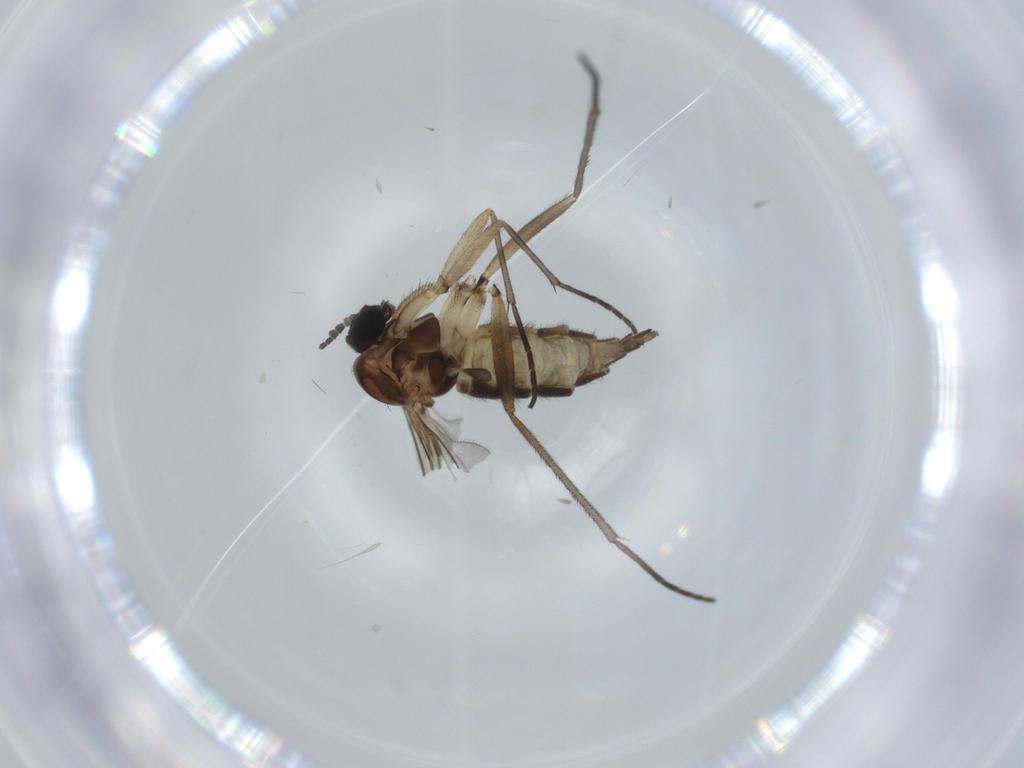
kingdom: Animalia
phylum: Arthropoda
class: Insecta
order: Diptera
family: Sciaridae
